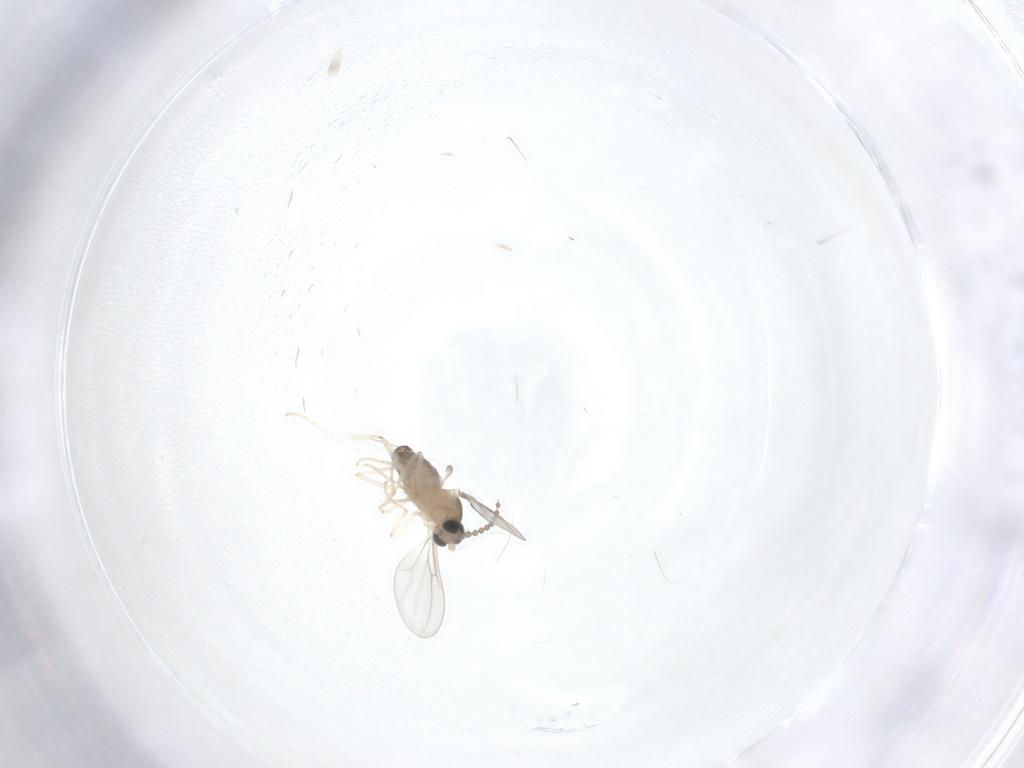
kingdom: Animalia
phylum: Arthropoda
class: Insecta
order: Diptera
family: Cecidomyiidae
